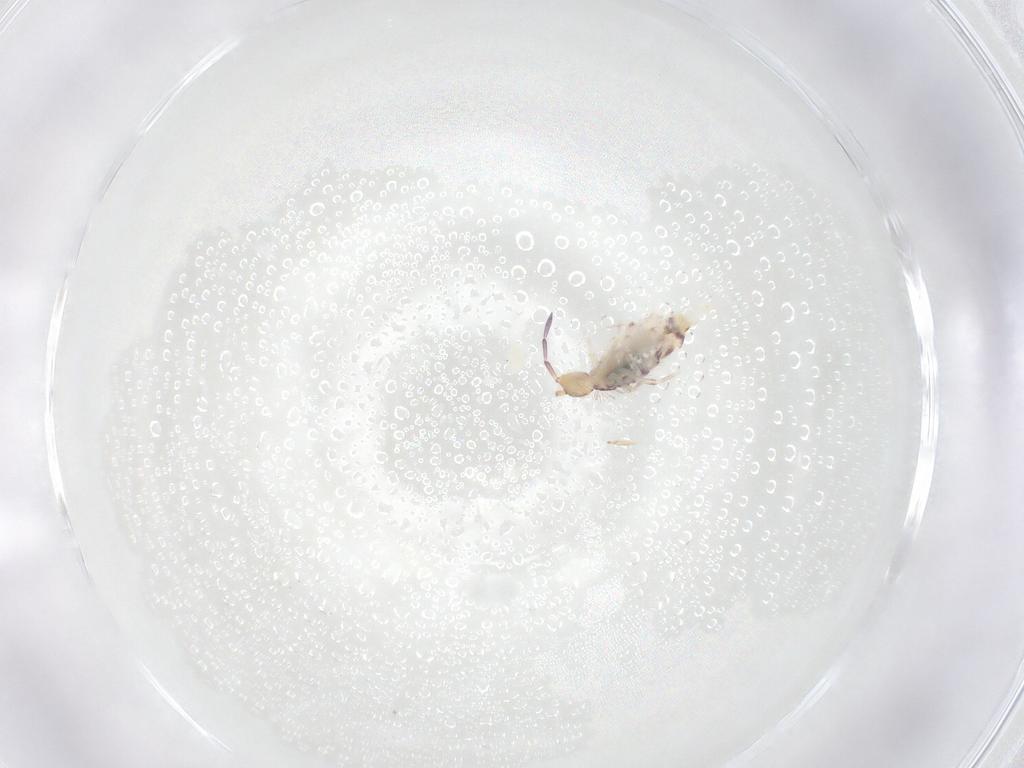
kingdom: Animalia
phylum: Arthropoda
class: Collembola
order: Entomobryomorpha
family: Entomobryidae
